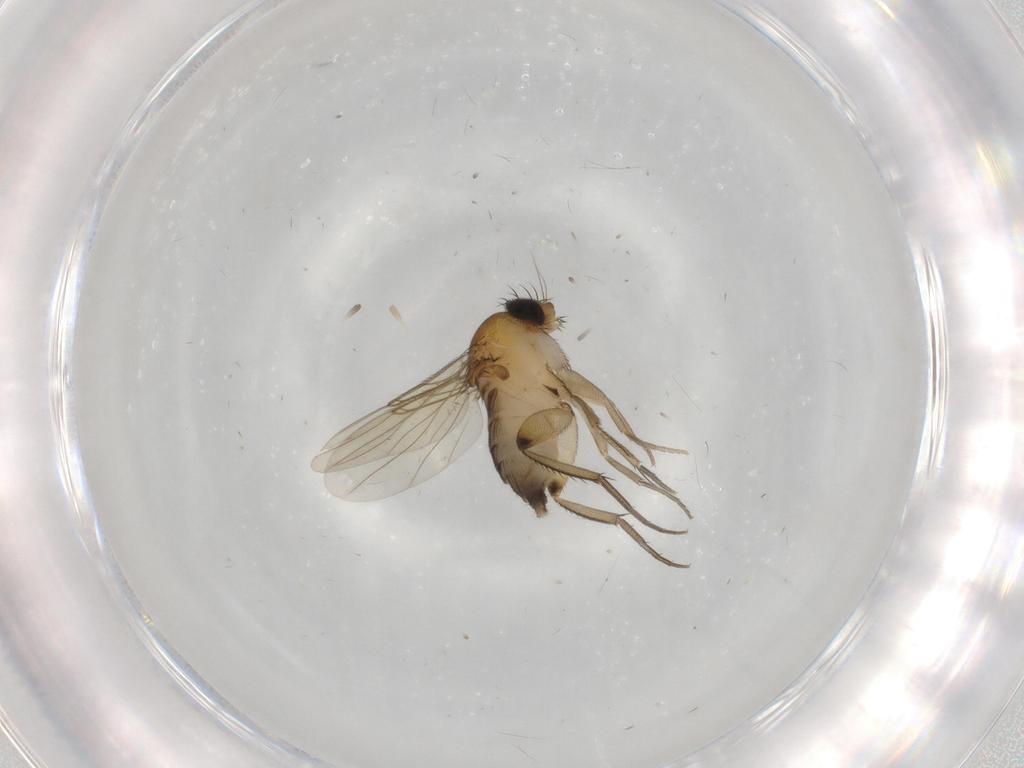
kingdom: Animalia
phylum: Arthropoda
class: Insecta
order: Diptera
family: Phoridae
